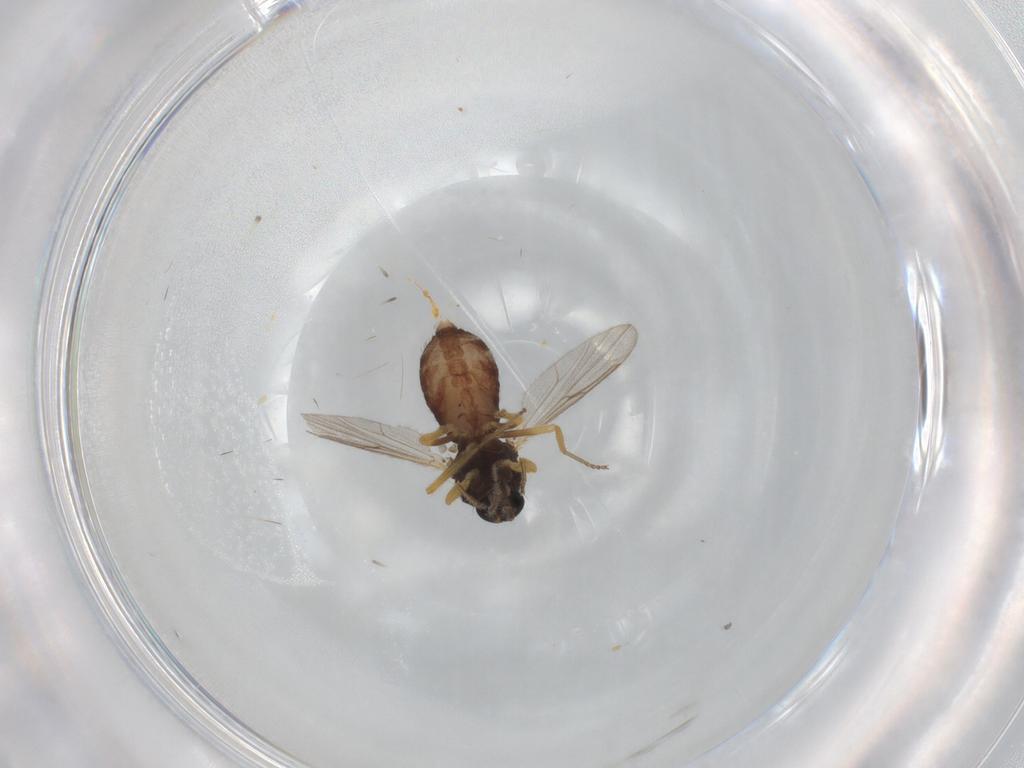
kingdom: Animalia
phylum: Arthropoda
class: Insecta
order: Diptera
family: Ceratopogonidae
